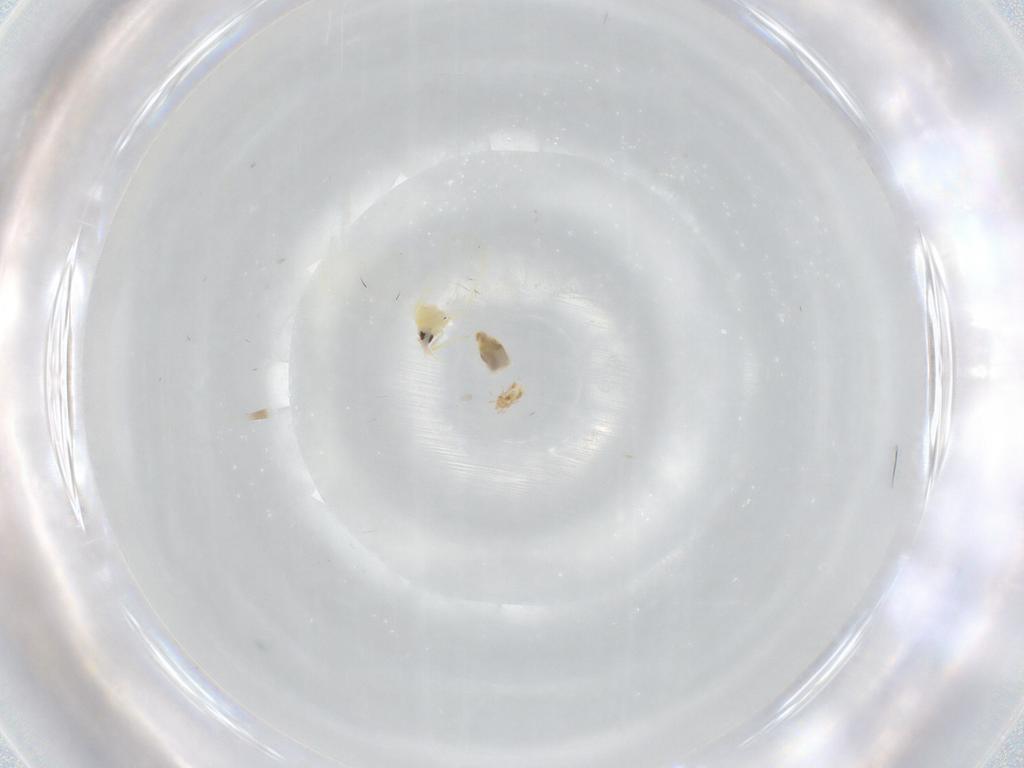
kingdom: Animalia
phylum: Arthropoda
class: Insecta
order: Hemiptera
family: Aleyrodidae
